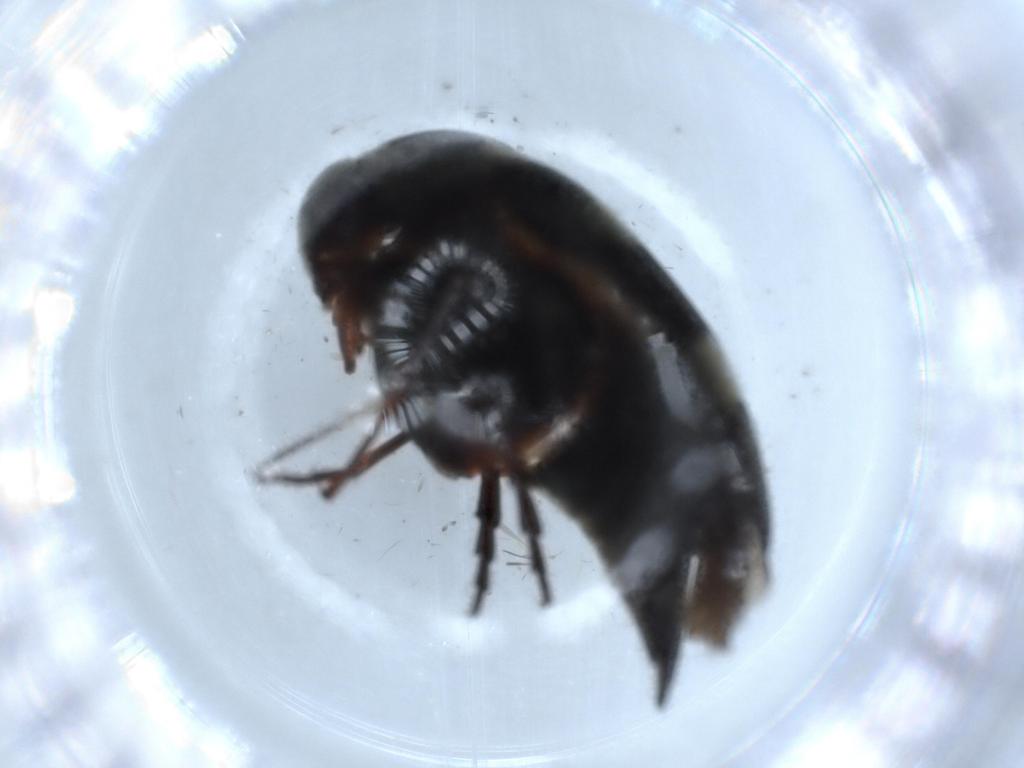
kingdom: Animalia
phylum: Arthropoda
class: Insecta
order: Coleoptera
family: Mordellidae
